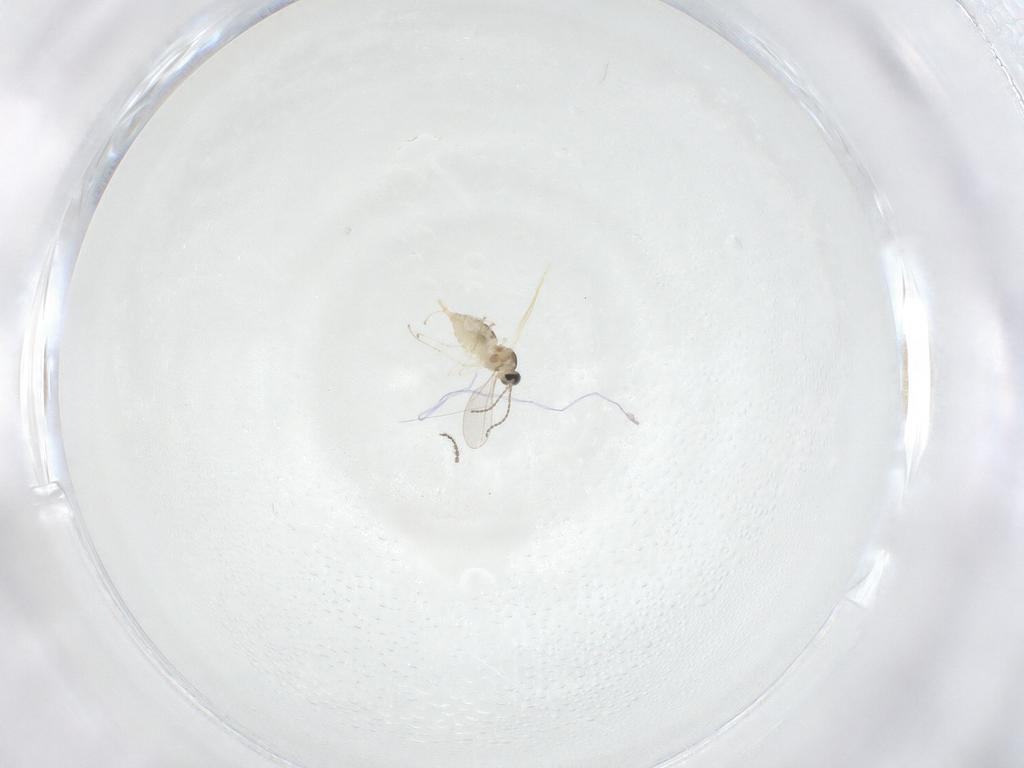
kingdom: Animalia
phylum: Arthropoda
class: Insecta
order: Diptera
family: Cecidomyiidae
